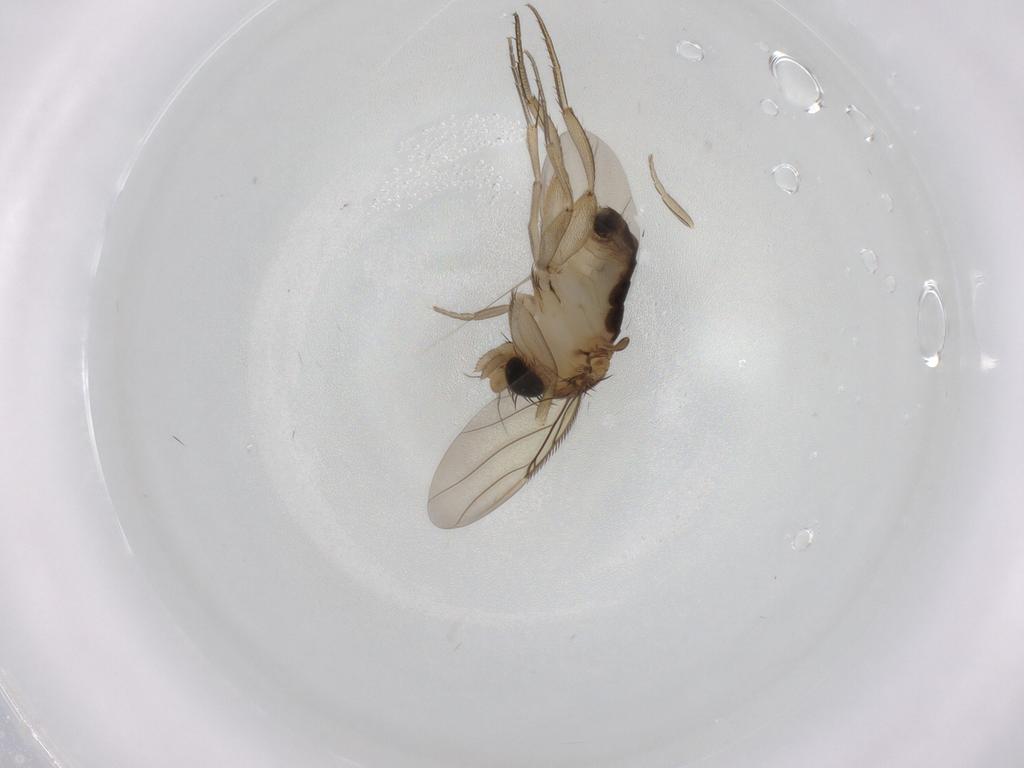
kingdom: Animalia
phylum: Arthropoda
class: Insecta
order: Diptera
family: Phoridae
